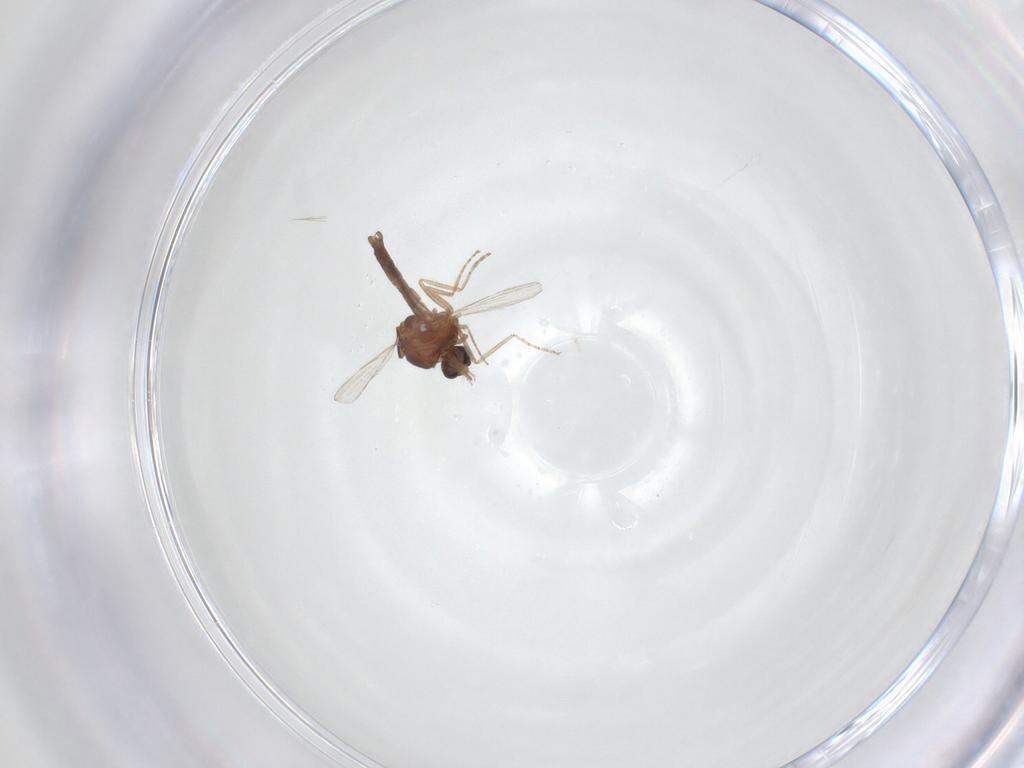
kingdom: Animalia
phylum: Arthropoda
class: Insecta
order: Diptera
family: Ceratopogonidae
